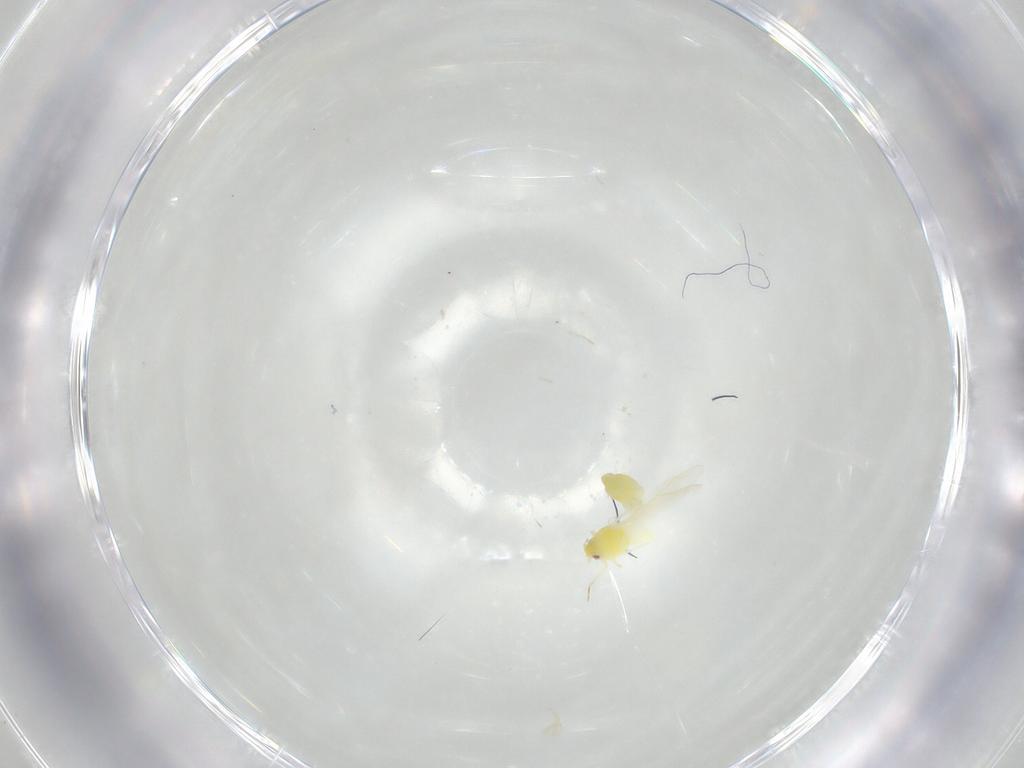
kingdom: Animalia
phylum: Arthropoda
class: Insecta
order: Hemiptera
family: Aleyrodidae
